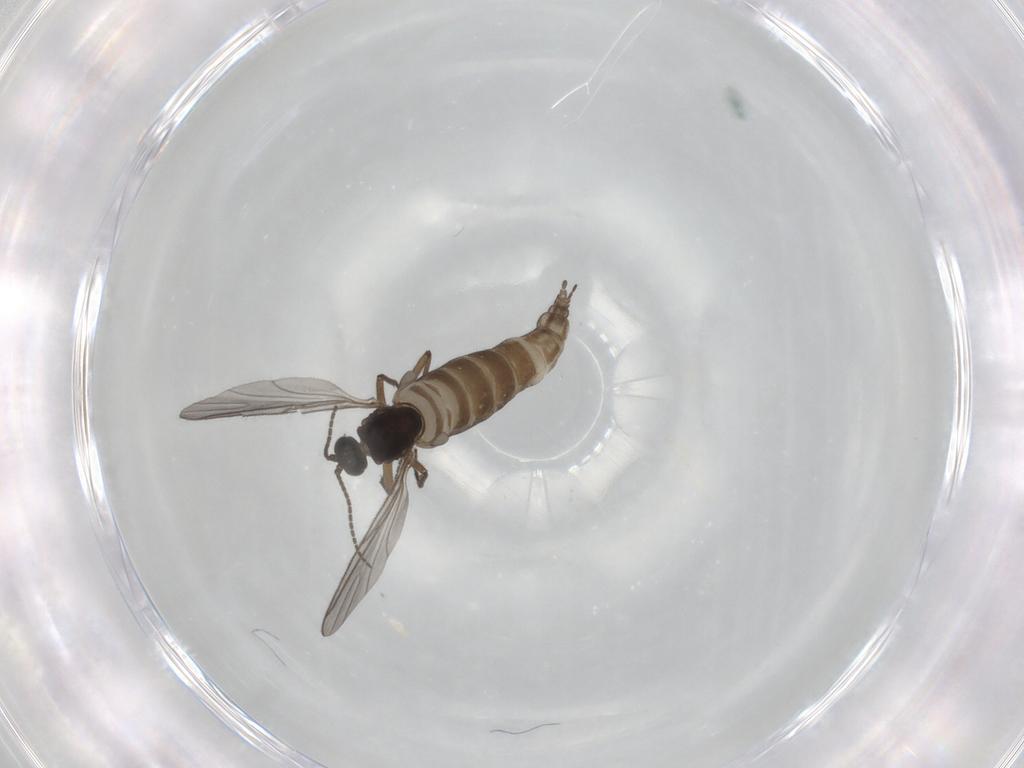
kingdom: Animalia
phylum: Arthropoda
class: Insecta
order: Diptera
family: Sciaridae
